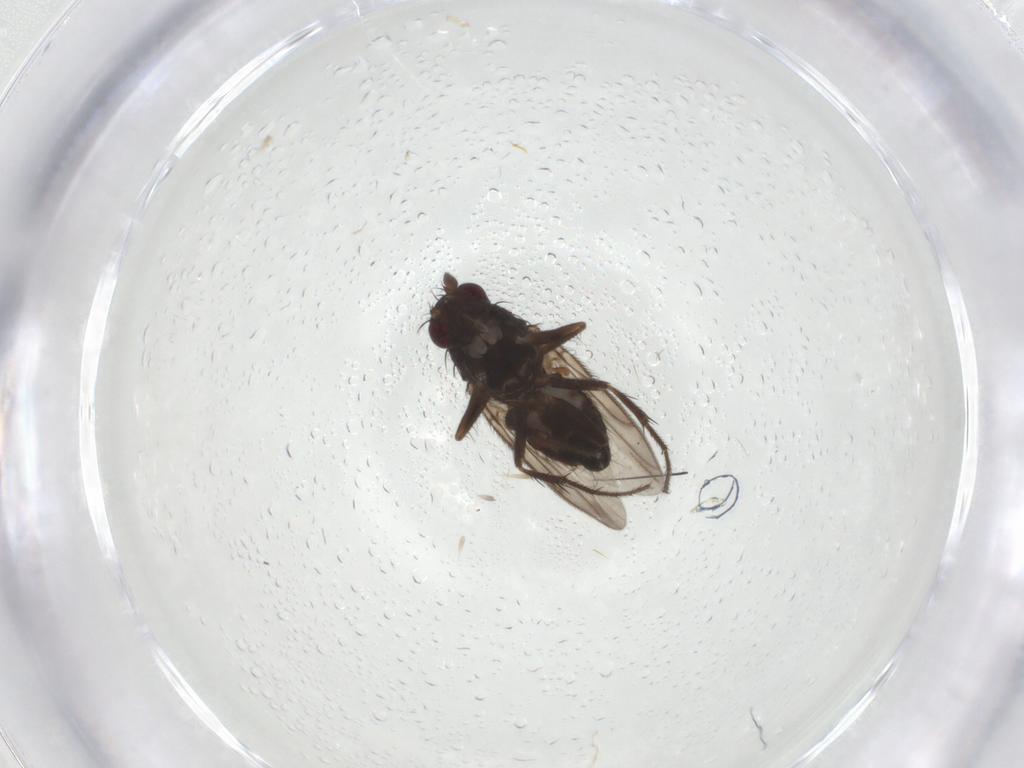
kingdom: Animalia
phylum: Arthropoda
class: Insecta
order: Diptera
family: Sphaeroceridae
